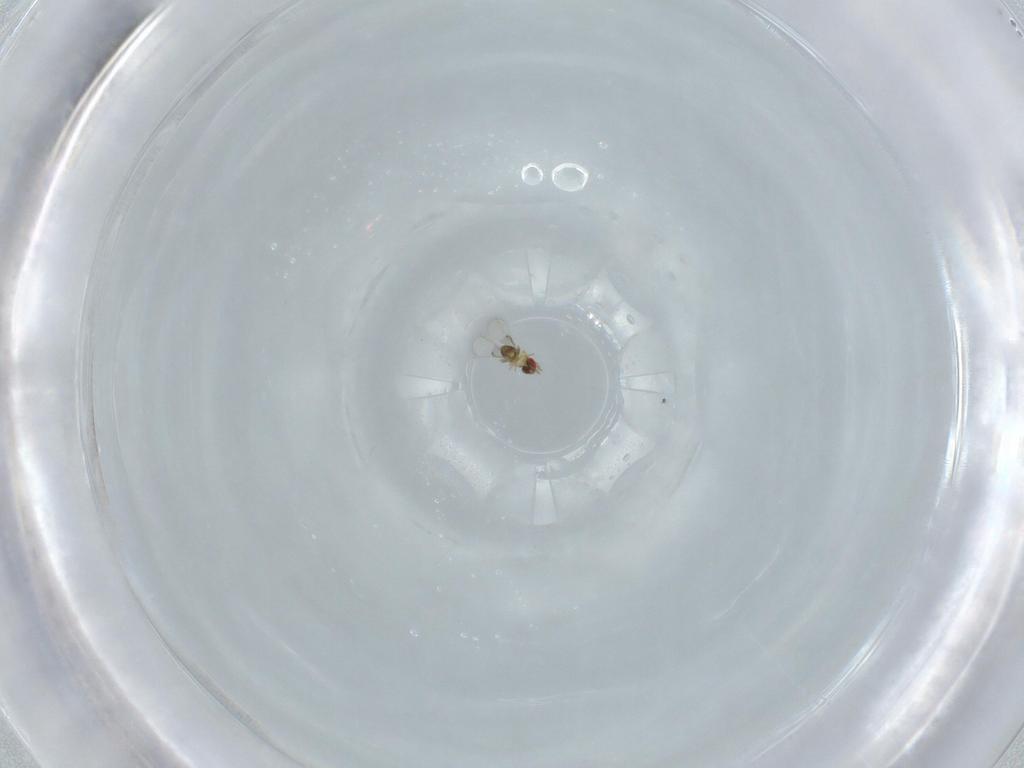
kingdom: Animalia
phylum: Arthropoda
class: Insecta
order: Hymenoptera
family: Trichogrammatidae
